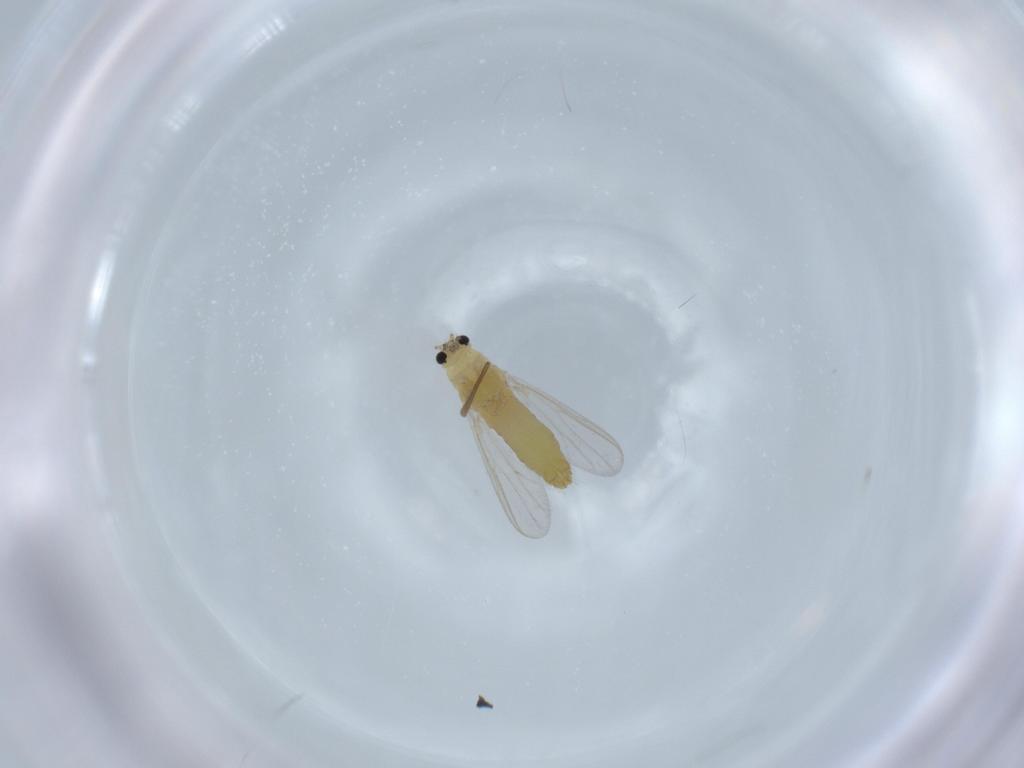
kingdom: Animalia
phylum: Arthropoda
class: Insecta
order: Diptera
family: Chironomidae
